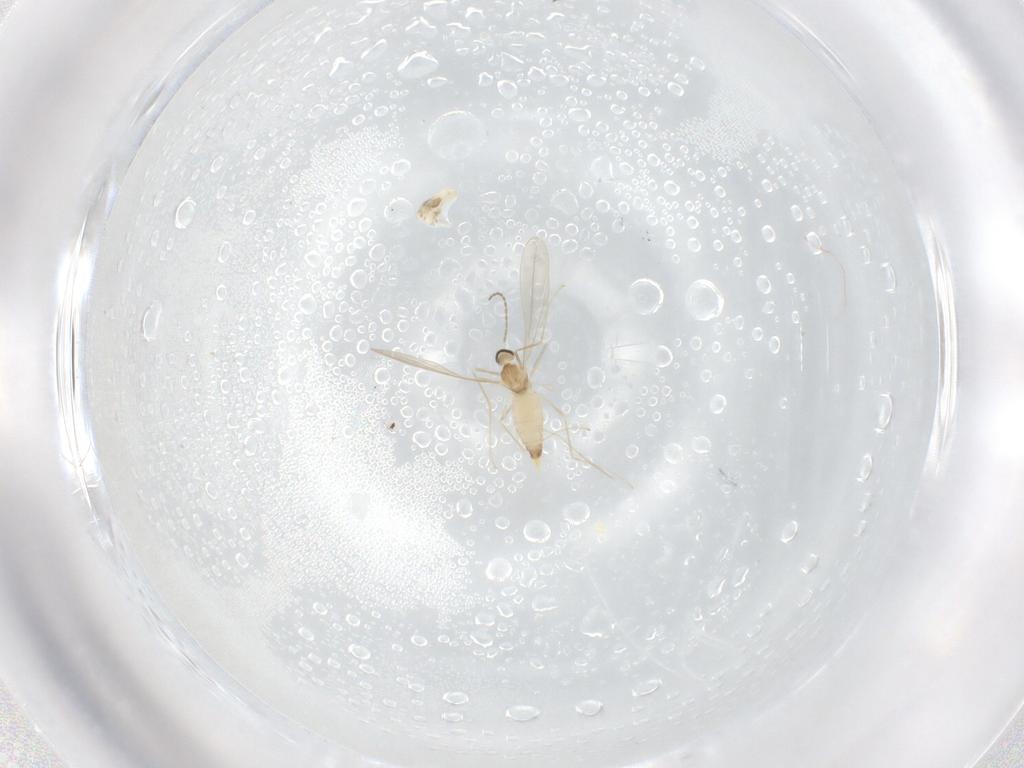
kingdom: Animalia
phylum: Arthropoda
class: Insecta
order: Diptera
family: Cecidomyiidae
